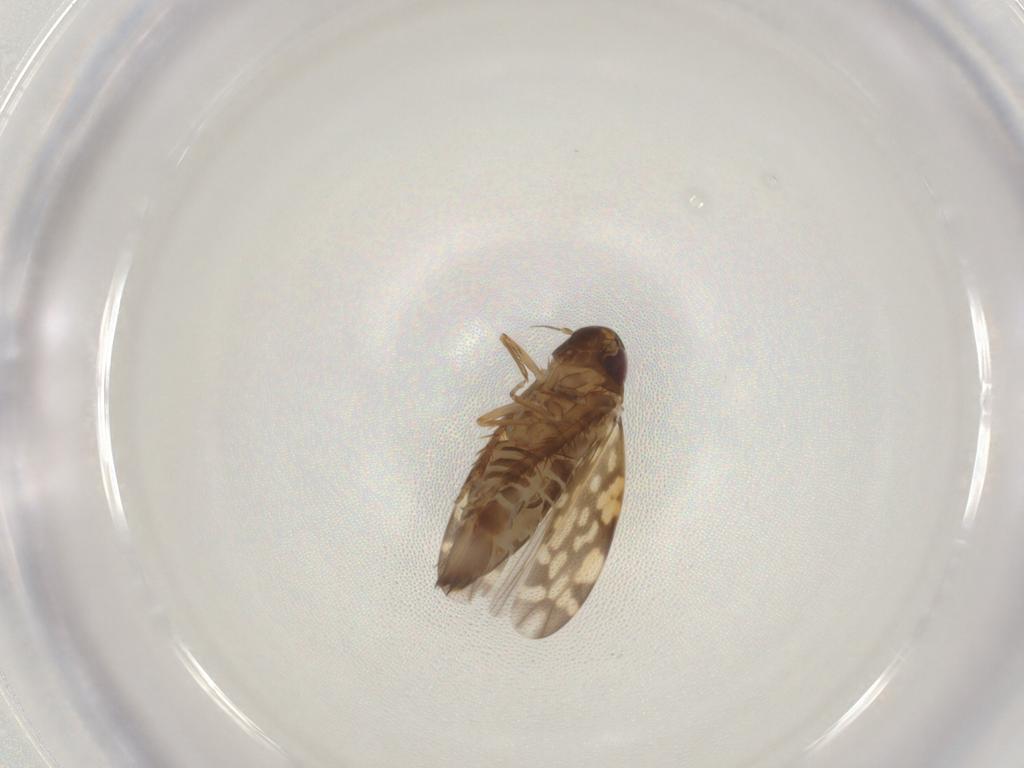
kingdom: Animalia
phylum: Arthropoda
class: Insecta
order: Hemiptera
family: Cicadellidae
